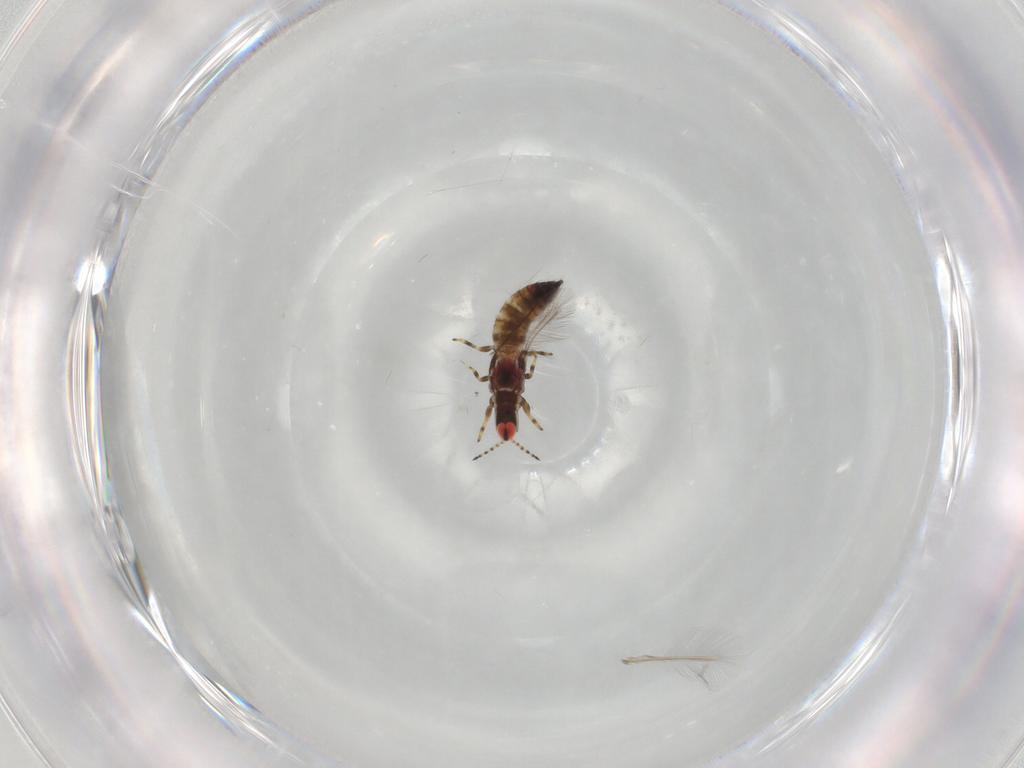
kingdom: Animalia
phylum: Arthropoda
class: Insecta
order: Thysanoptera
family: Phlaeothripidae
